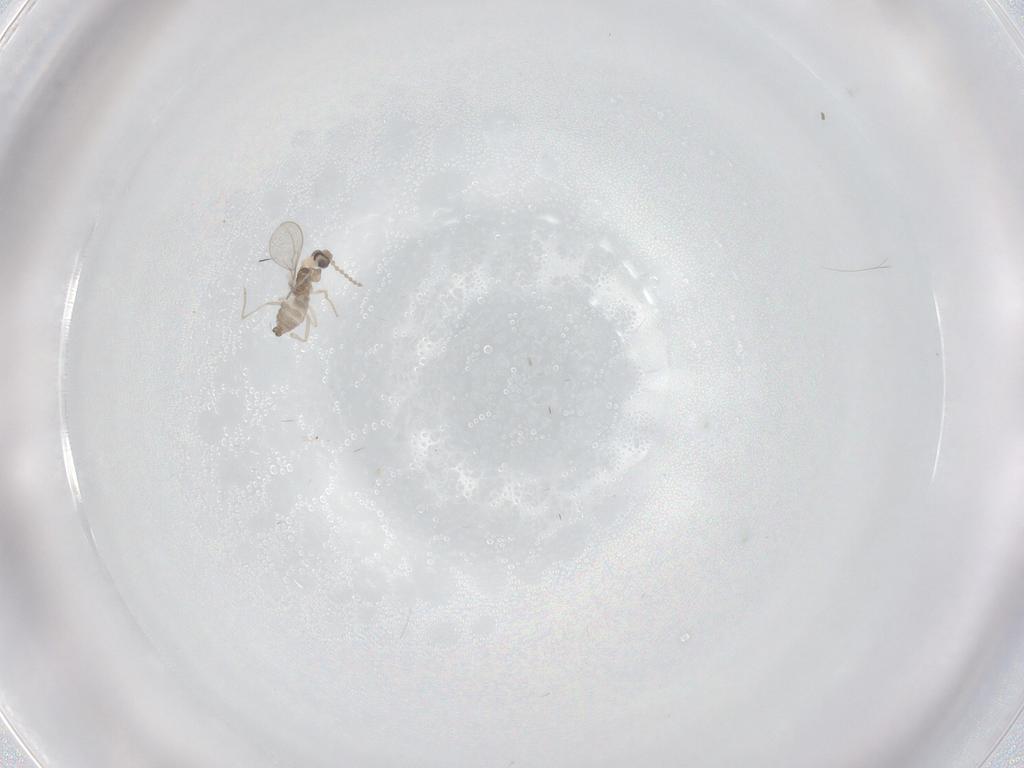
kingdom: Animalia
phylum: Arthropoda
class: Insecta
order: Diptera
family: Cecidomyiidae
